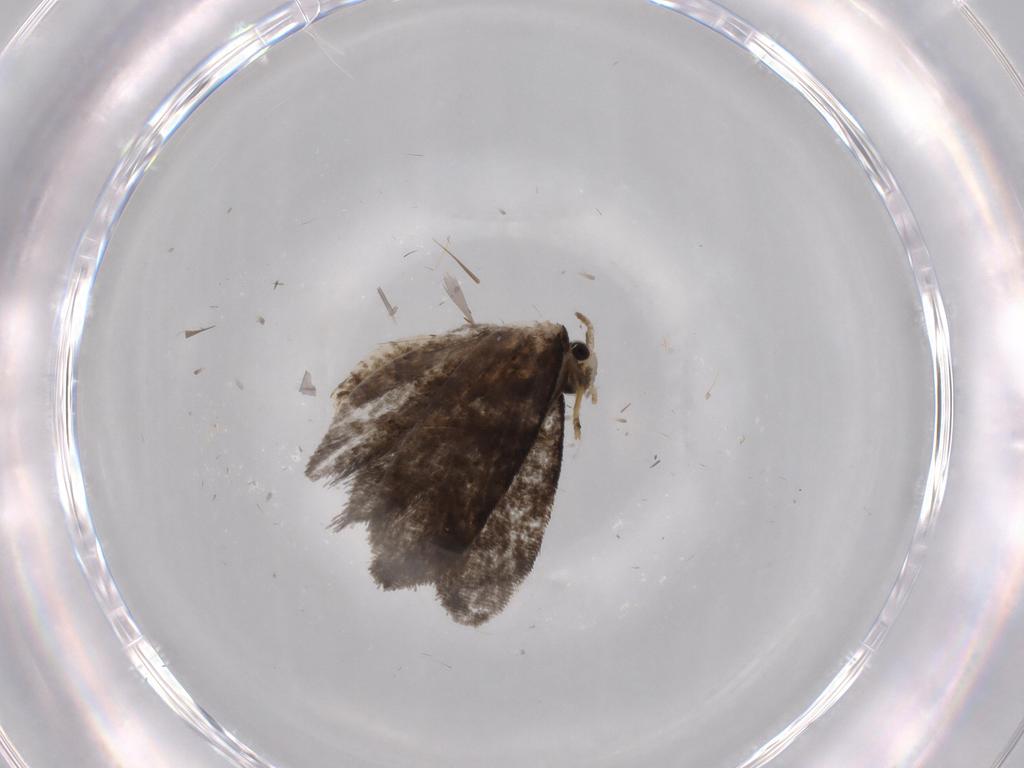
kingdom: Animalia
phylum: Arthropoda
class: Insecta
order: Lepidoptera
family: Psychidae
